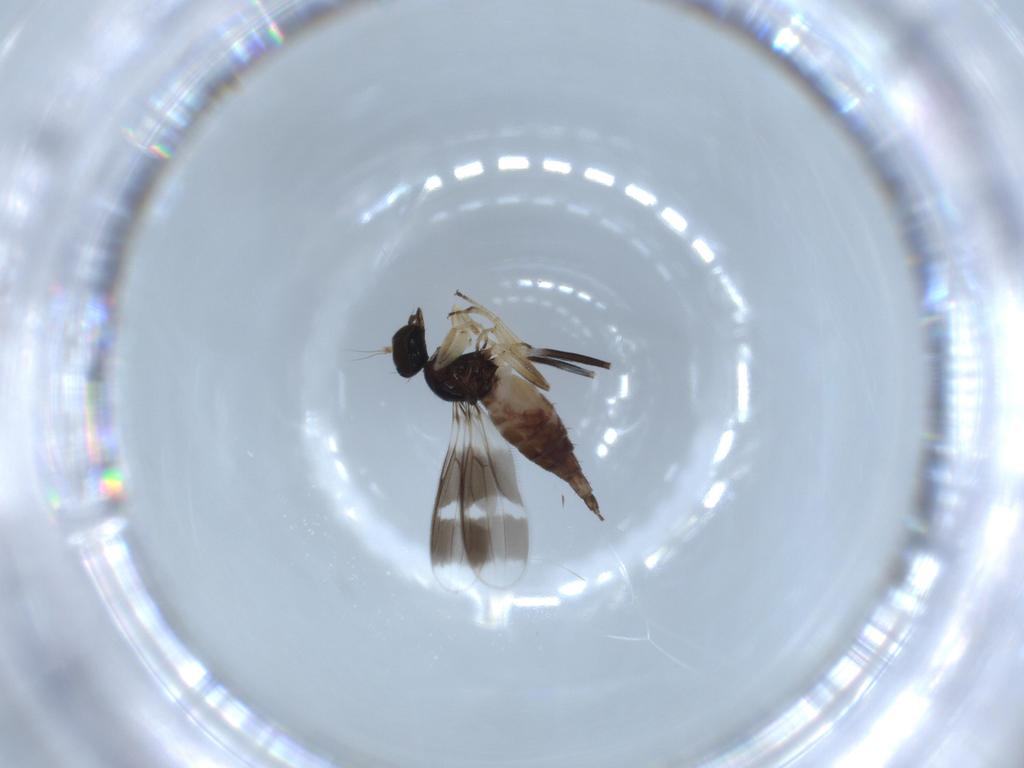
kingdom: Animalia
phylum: Arthropoda
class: Insecta
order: Diptera
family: Hybotidae
